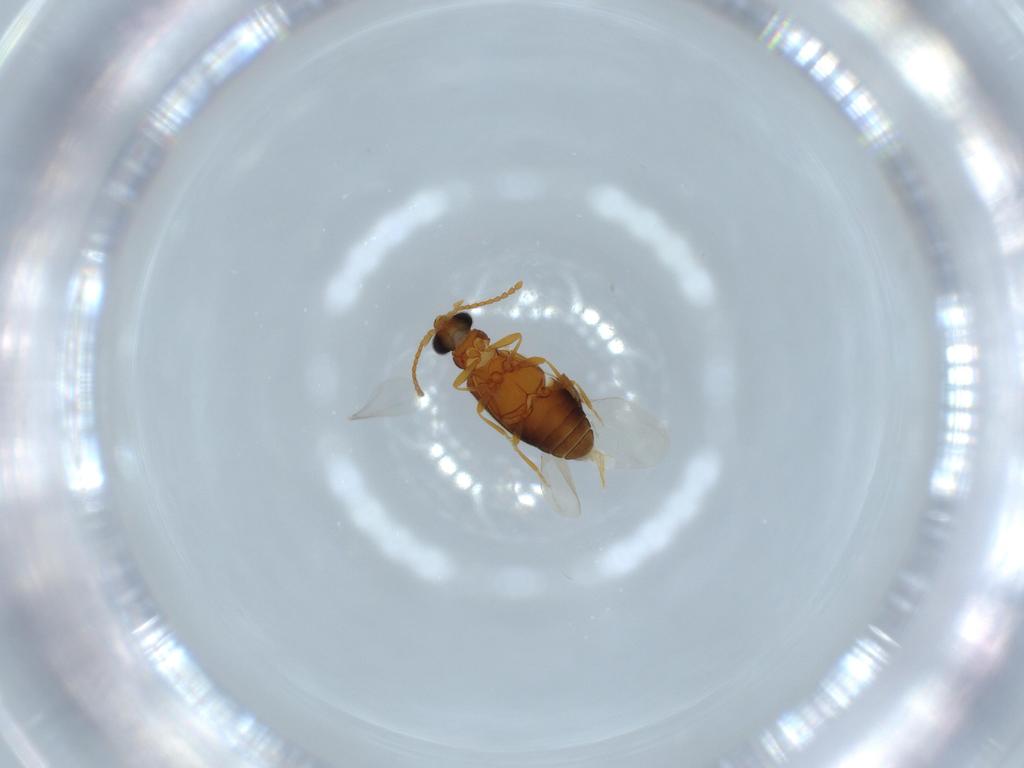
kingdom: Animalia
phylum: Arthropoda
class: Insecta
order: Coleoptera
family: Aderidae
